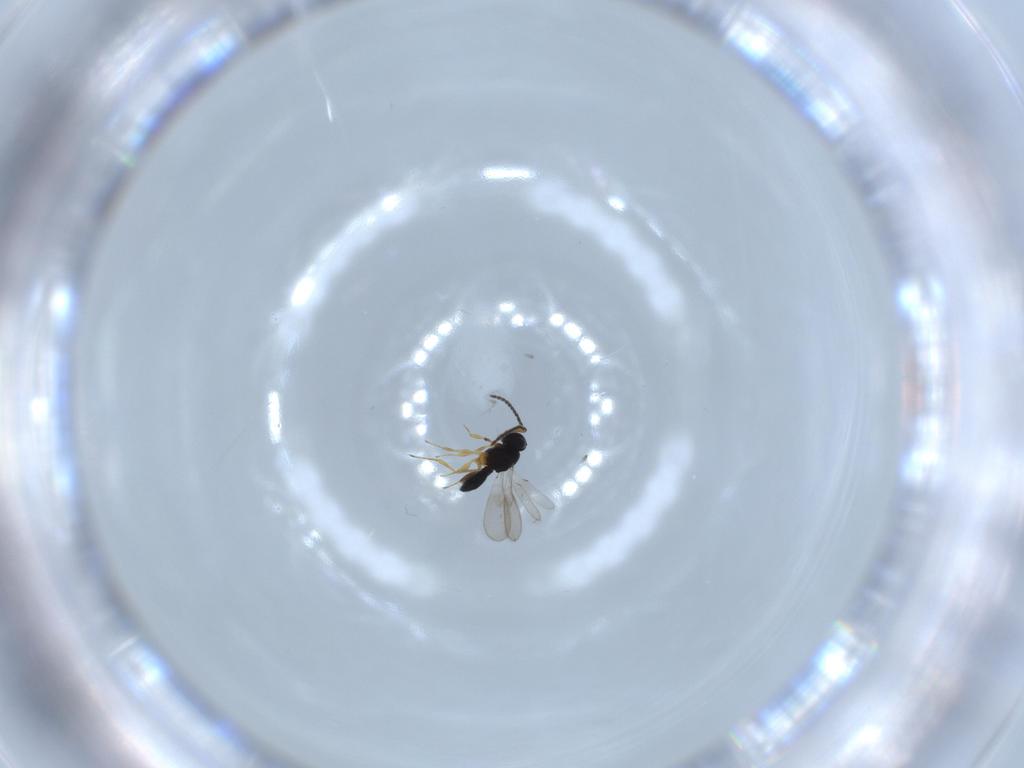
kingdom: Animalia
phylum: Arthropoda
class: Insecta
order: Hymenoptera
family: Scelionidae
